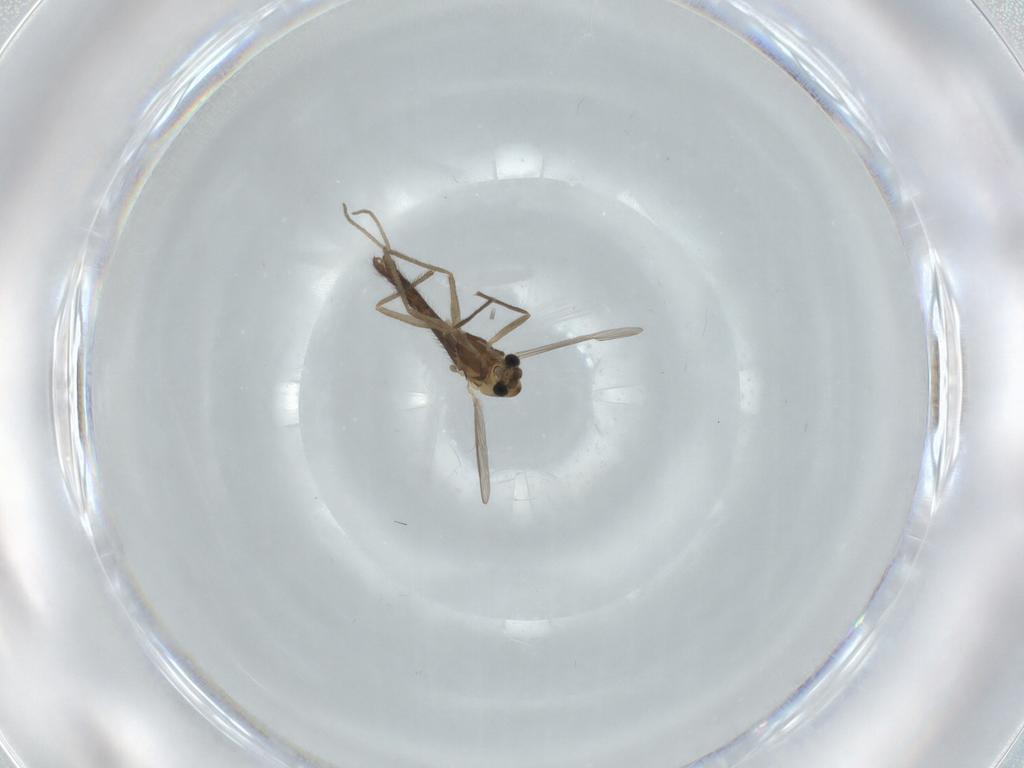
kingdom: Animalia
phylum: Arthropoda
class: Insecta
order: Diptera
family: Chironomidae
